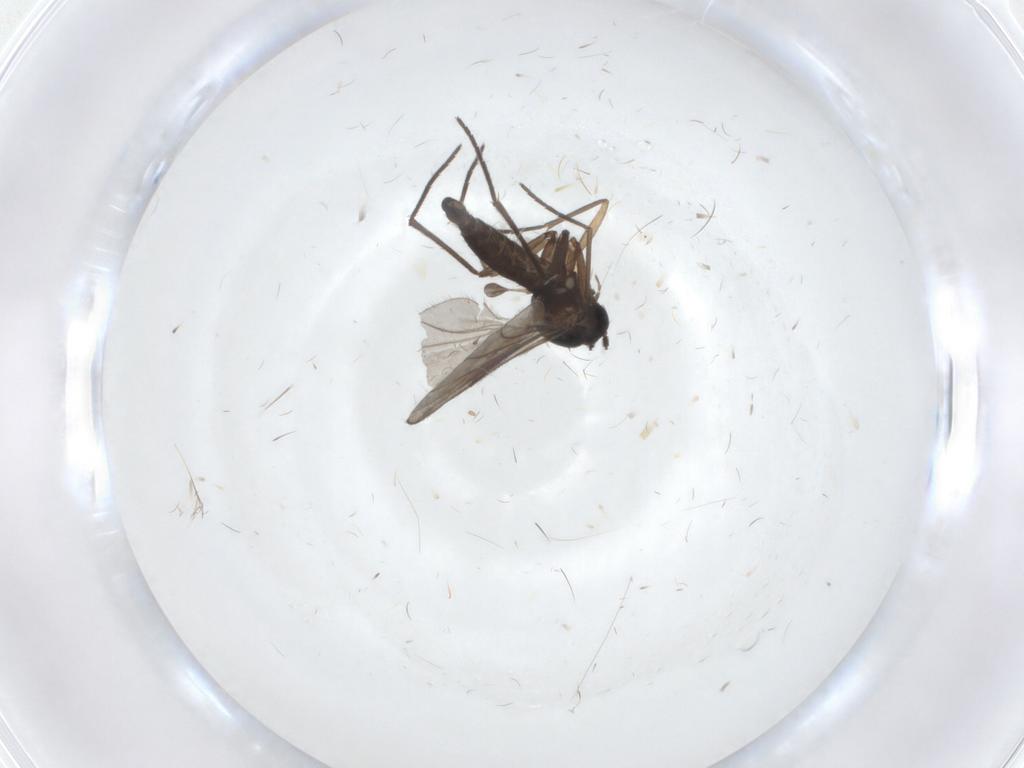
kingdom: Animalia
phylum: Arthropoda
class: Insecta
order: Diptera
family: Sciaridae
